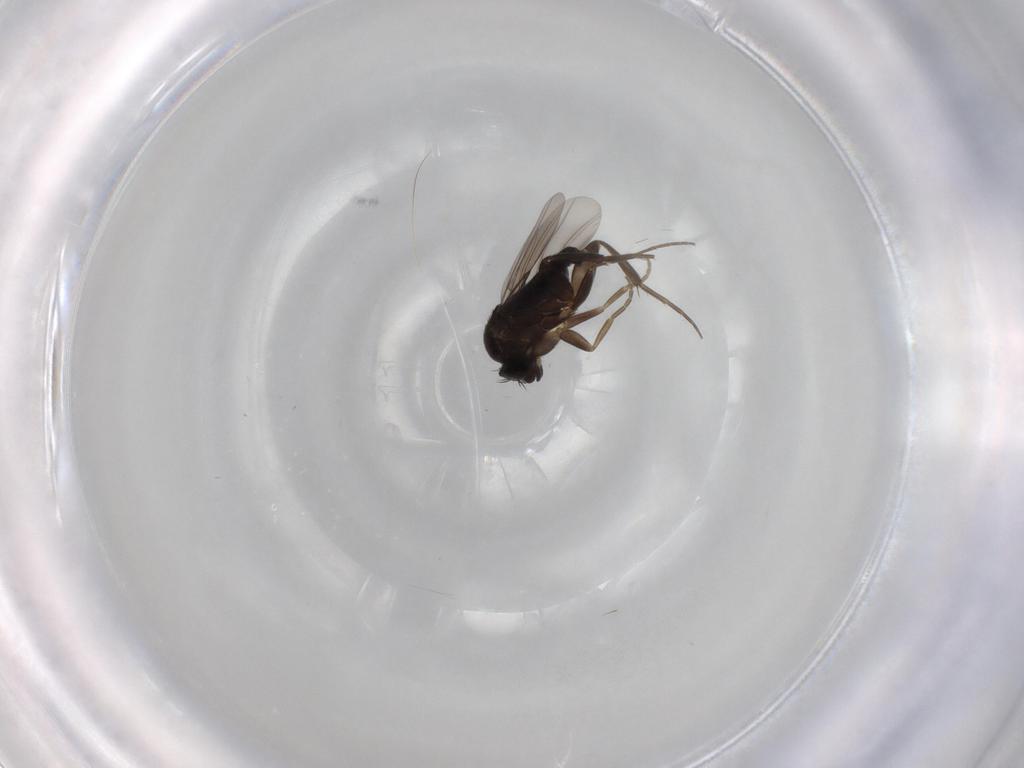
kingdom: Animalia
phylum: Arthropoda
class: Insecta
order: Diptera
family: Phoridae
